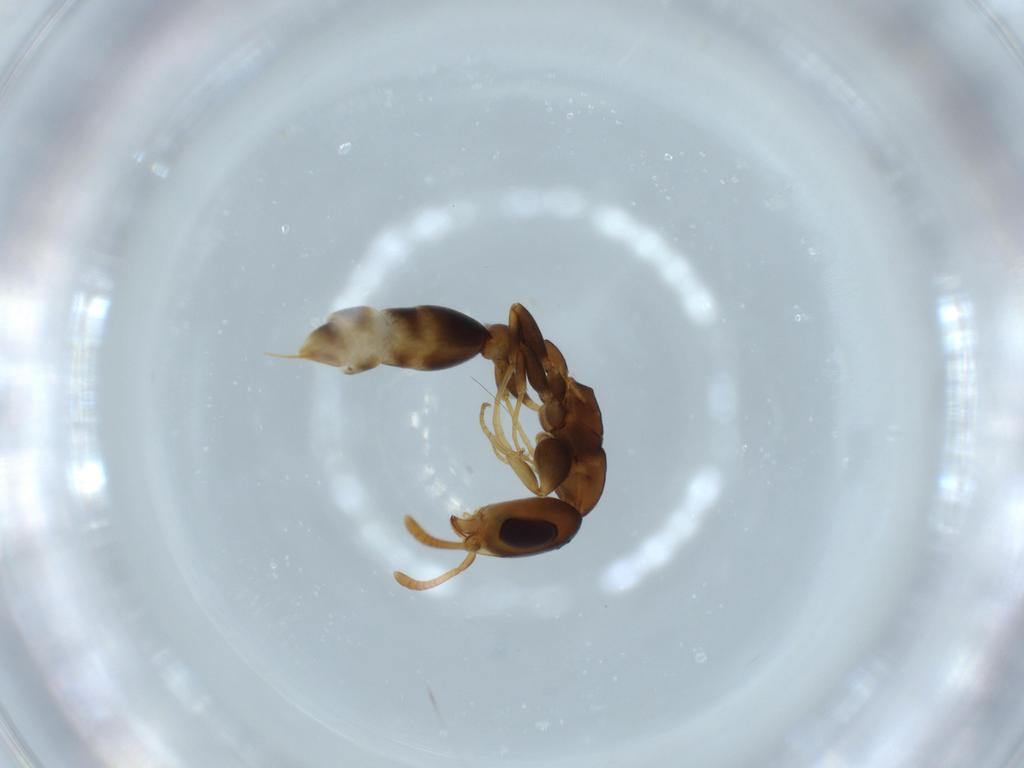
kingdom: Animalia
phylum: Arthropoda
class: Insecta
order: Hymenoptera
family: Formicidae
